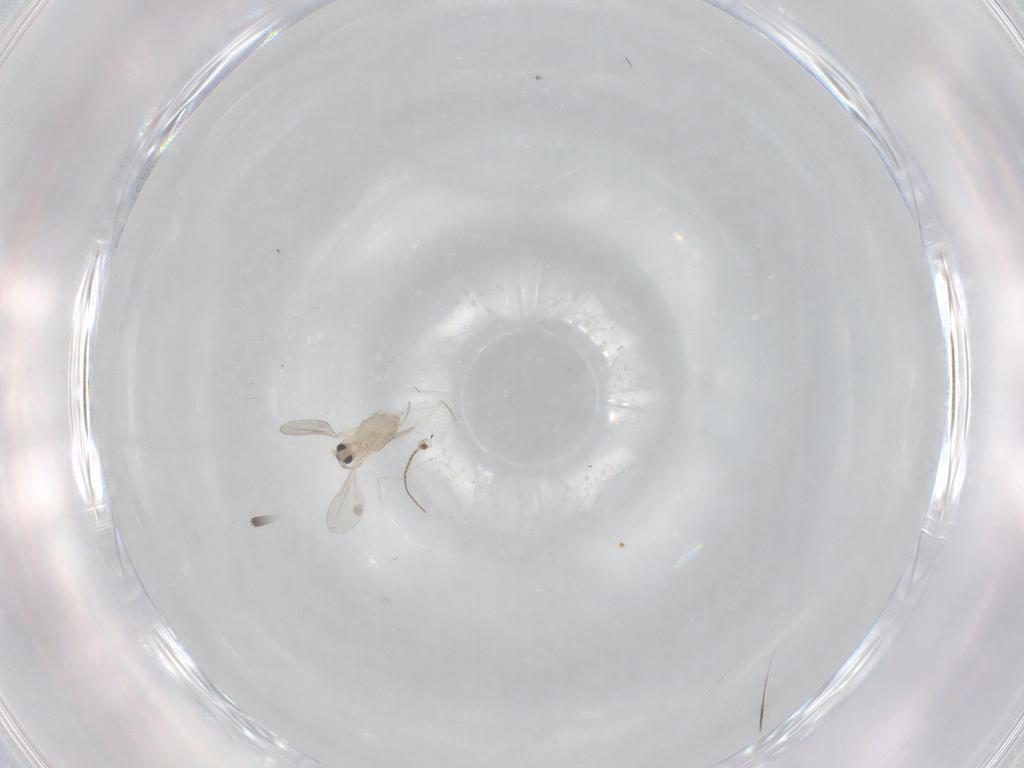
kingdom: Animalia
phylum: Arthropoda
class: Insecta
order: Diptera
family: Cecidomyiidae
